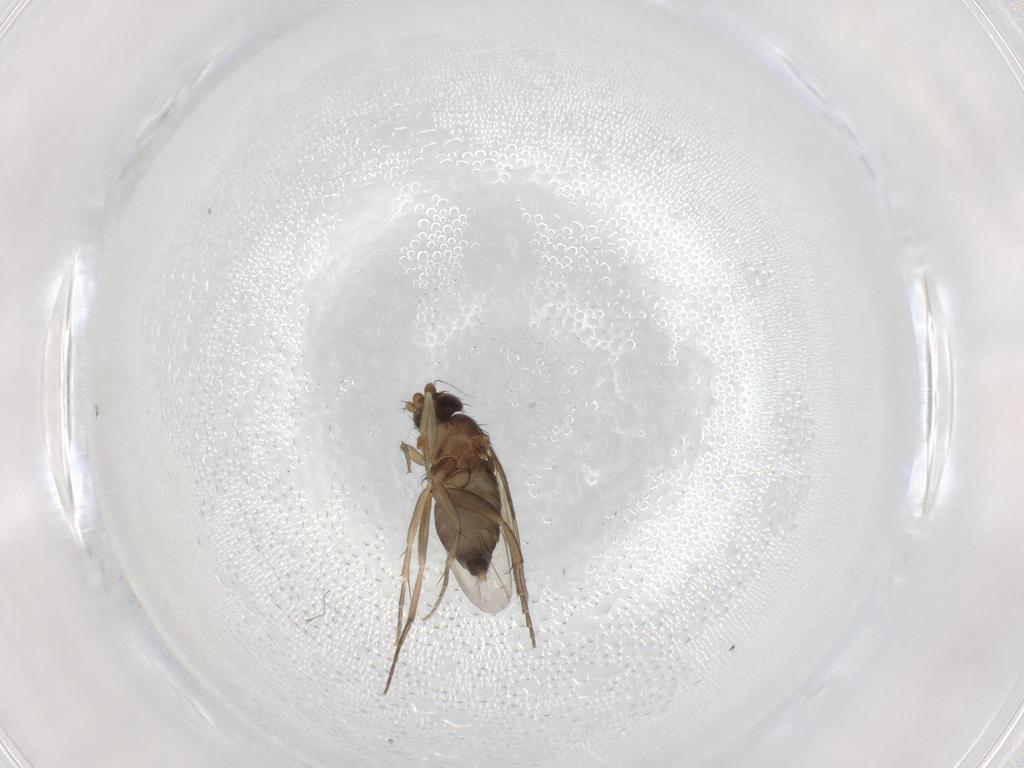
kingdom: Animalia
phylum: Arthropoda
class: Insecta
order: Diptera
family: Phoridae
